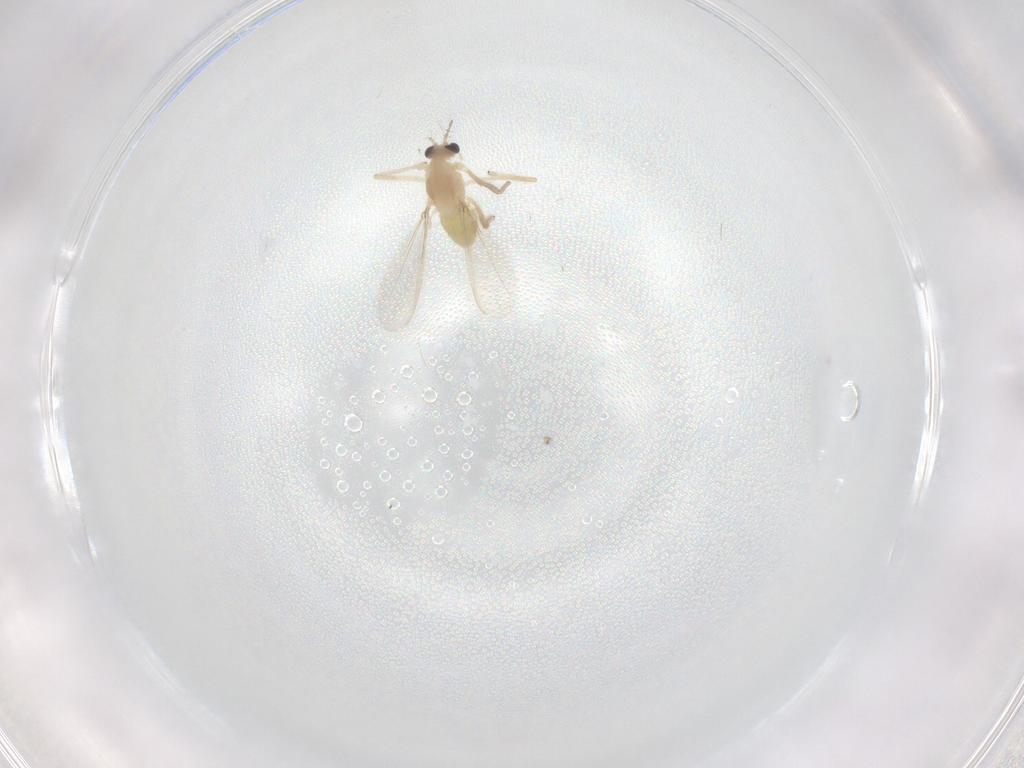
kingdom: Animalia
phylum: Arthropoda
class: Insecta
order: Diptera
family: Chironomidae
